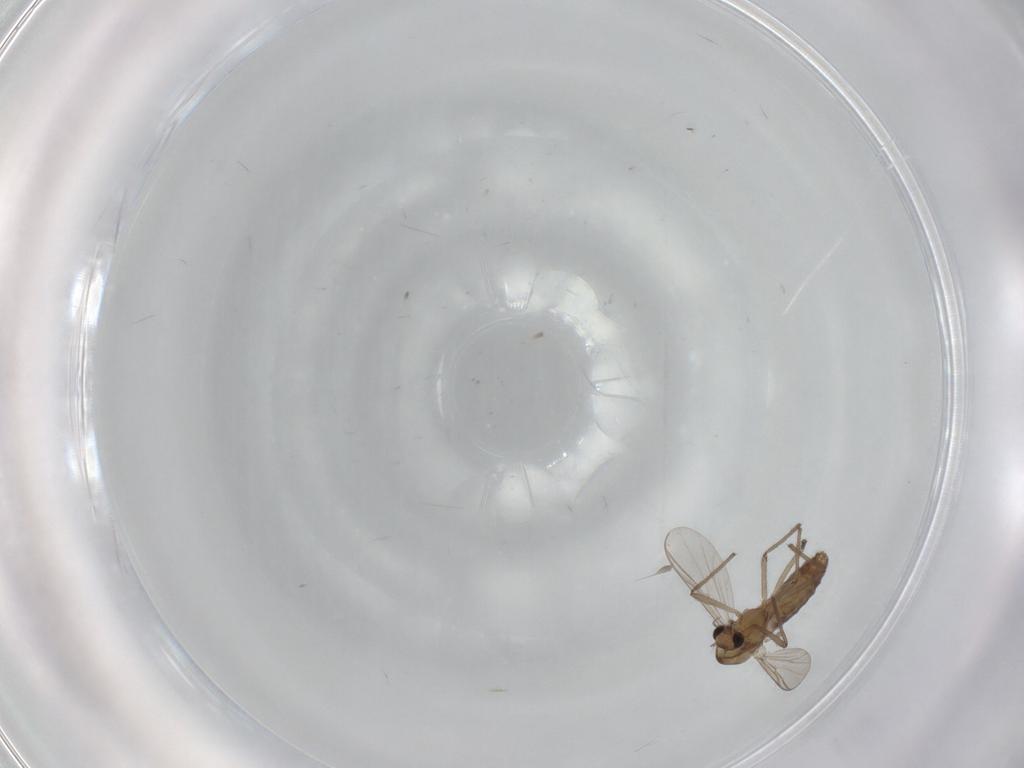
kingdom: Animalia
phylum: Arthropoda
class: Insecta
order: Diptera
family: Chironomidae
